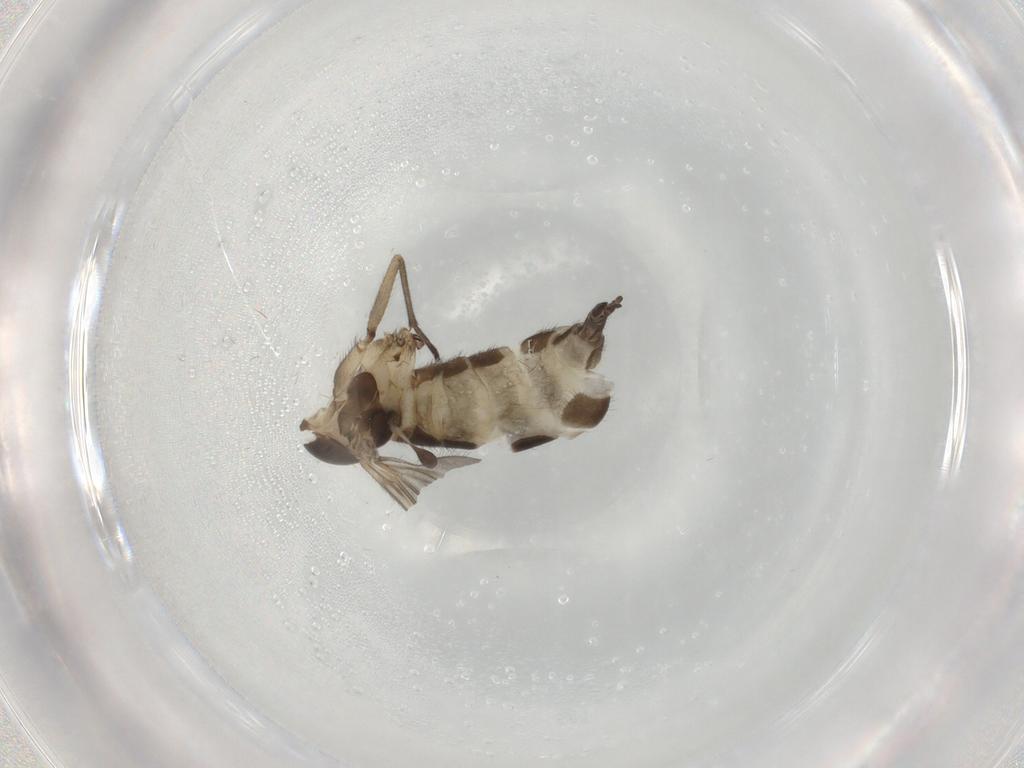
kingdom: Animalia
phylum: Arthropoda
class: Insecta
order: Diptera
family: Sciaridae
